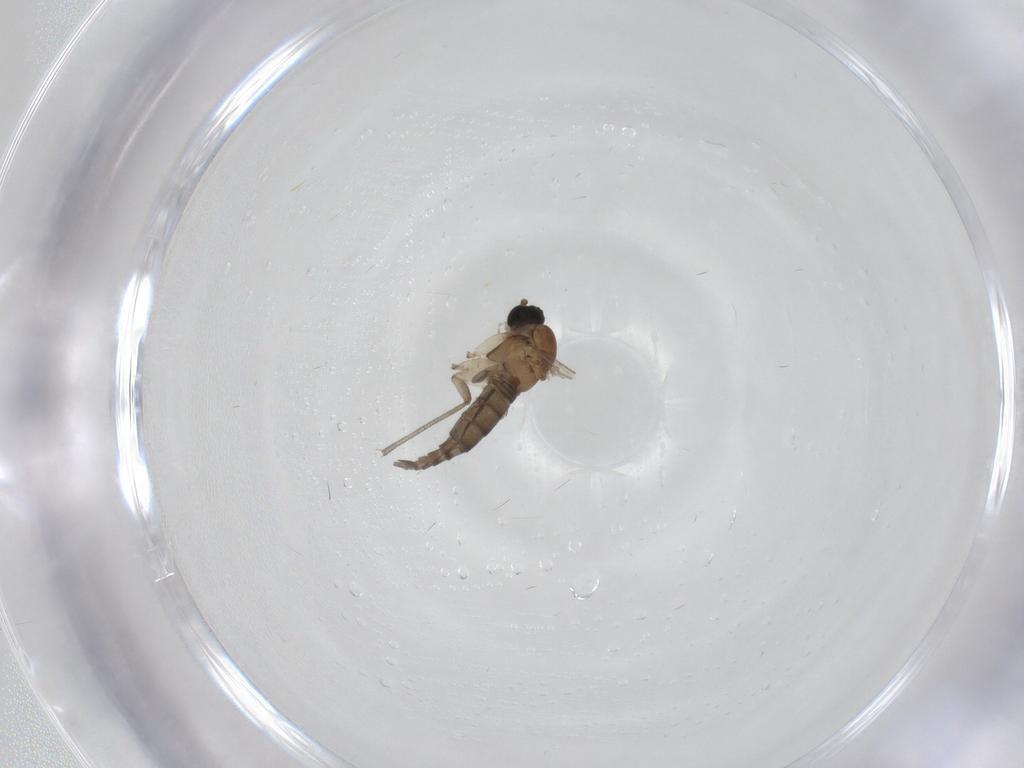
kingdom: Animalia
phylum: Arthropoda
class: Insecta
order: Diptera
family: Sciaridae
